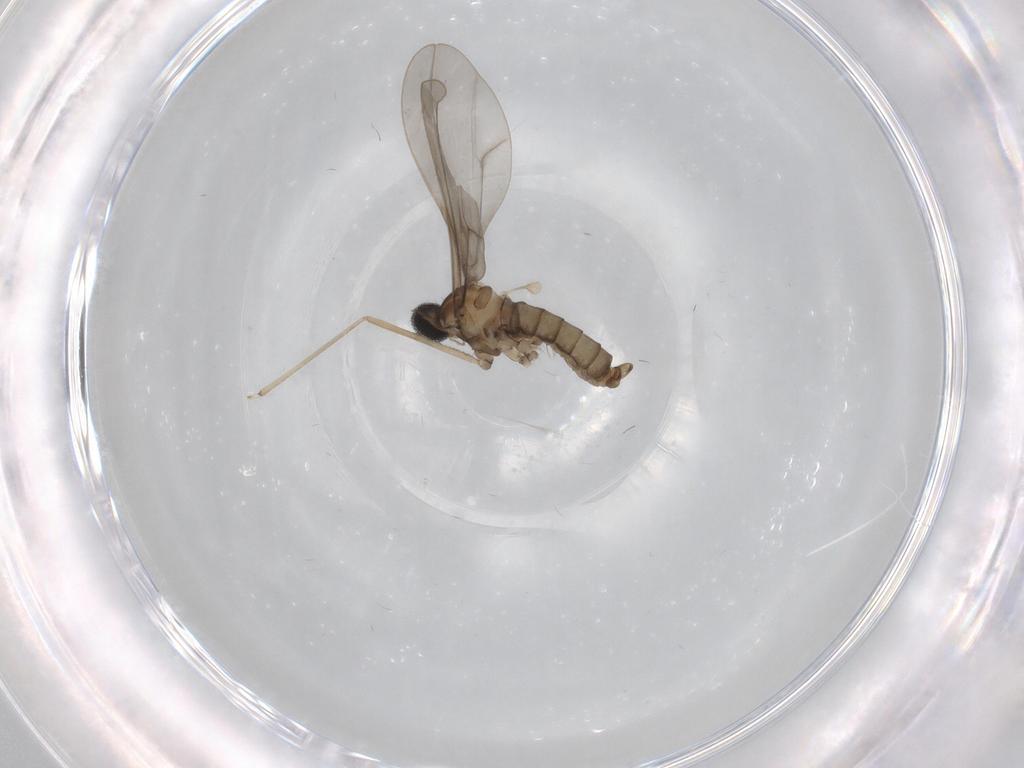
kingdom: Animalia
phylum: Arthropoda
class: Insecta
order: Diptera
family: Cecidomyiidae
